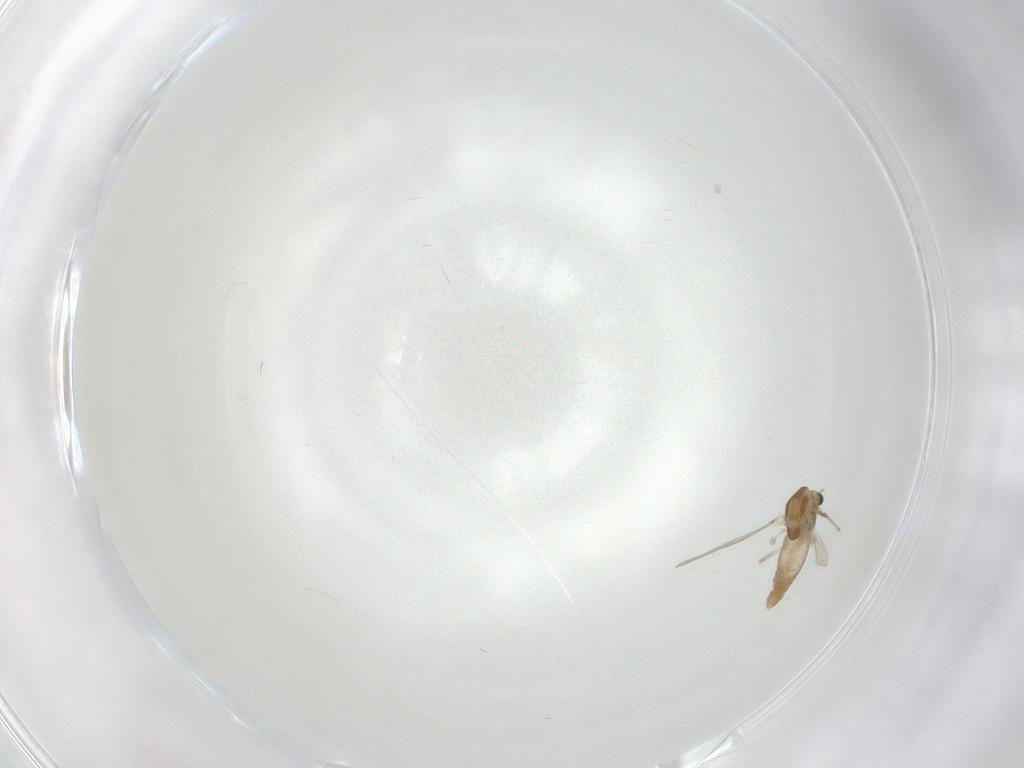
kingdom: Animalia
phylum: Arthropoda
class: Insecta
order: Diptera
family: Chironomidae
